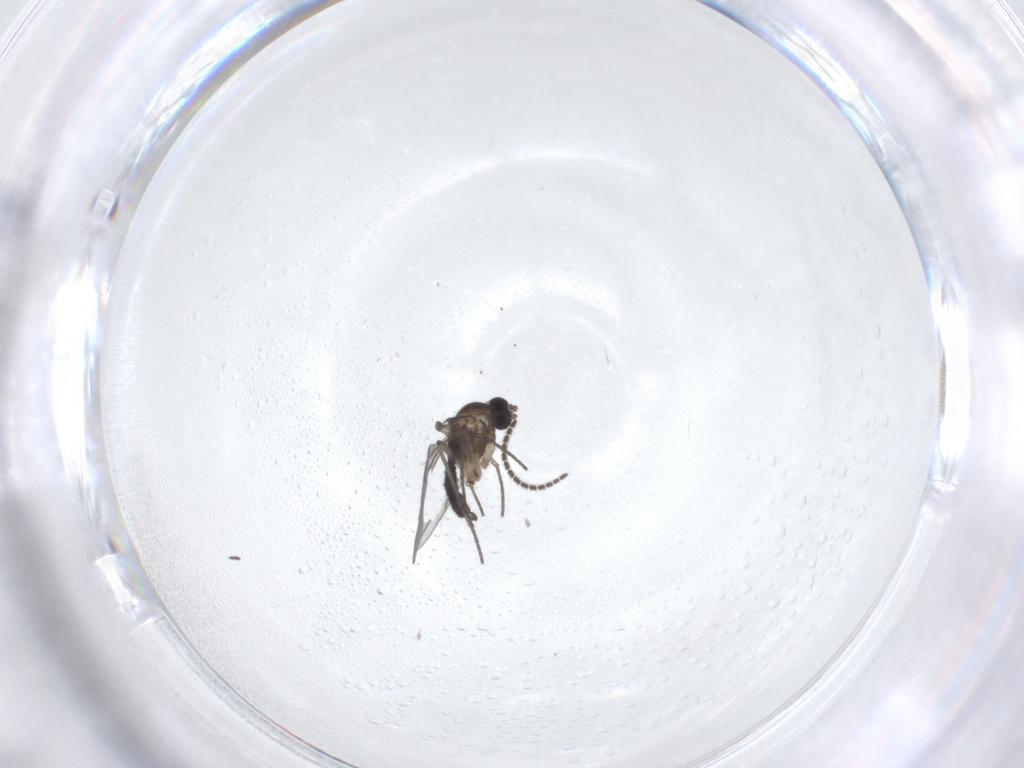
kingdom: Animalia
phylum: Arthropoda
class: Insecta
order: Diptera
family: Sciaridae
